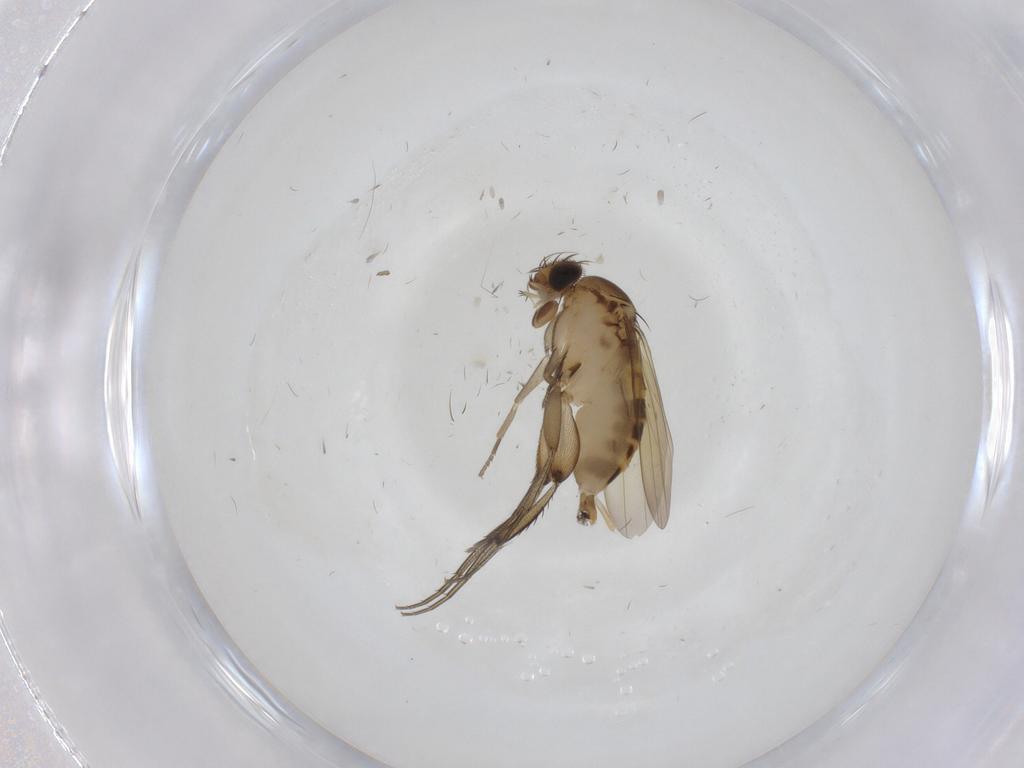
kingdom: Animalia
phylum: Arthropoda
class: Insecta
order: Diptera
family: Phoridae
